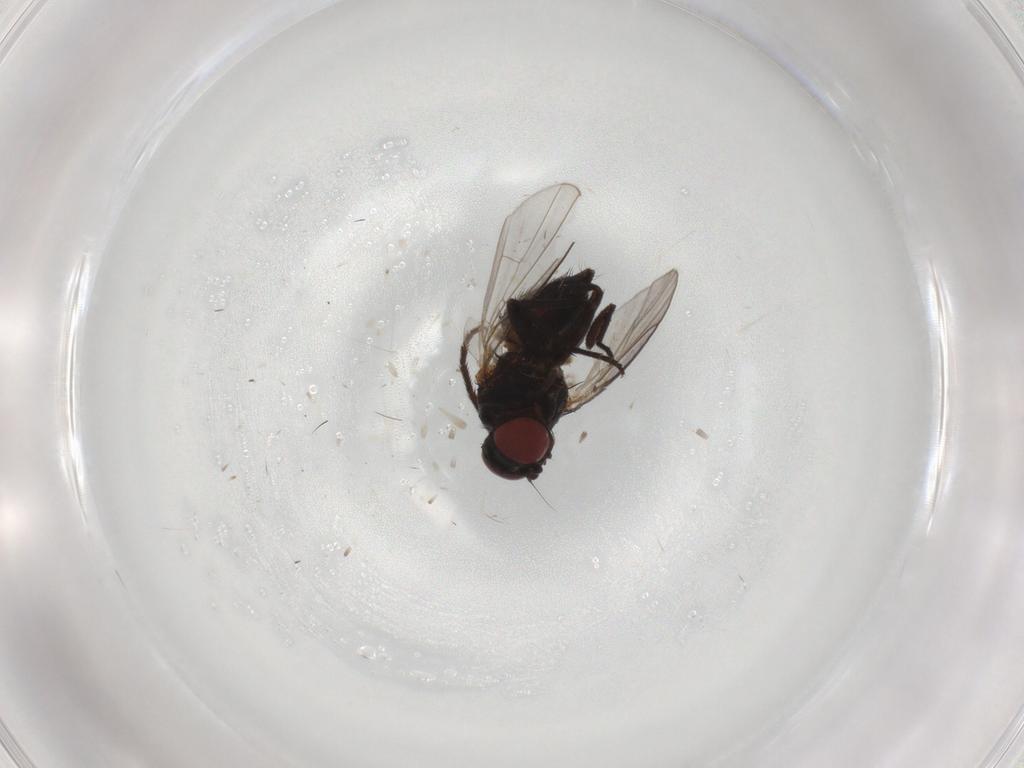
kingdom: Animalia
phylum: Arthropoda
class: Insecta
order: Diptera
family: Agromyzidae
